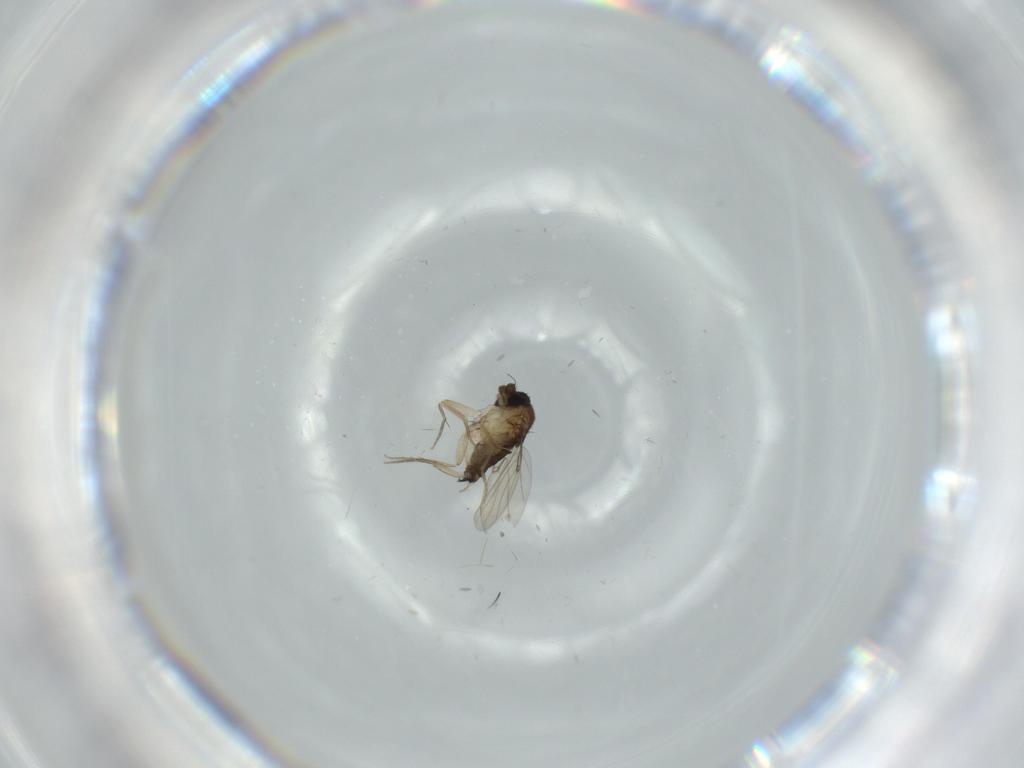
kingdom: Animalia
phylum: Arthropoda
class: Insecta
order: Diptera
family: Phoridae
